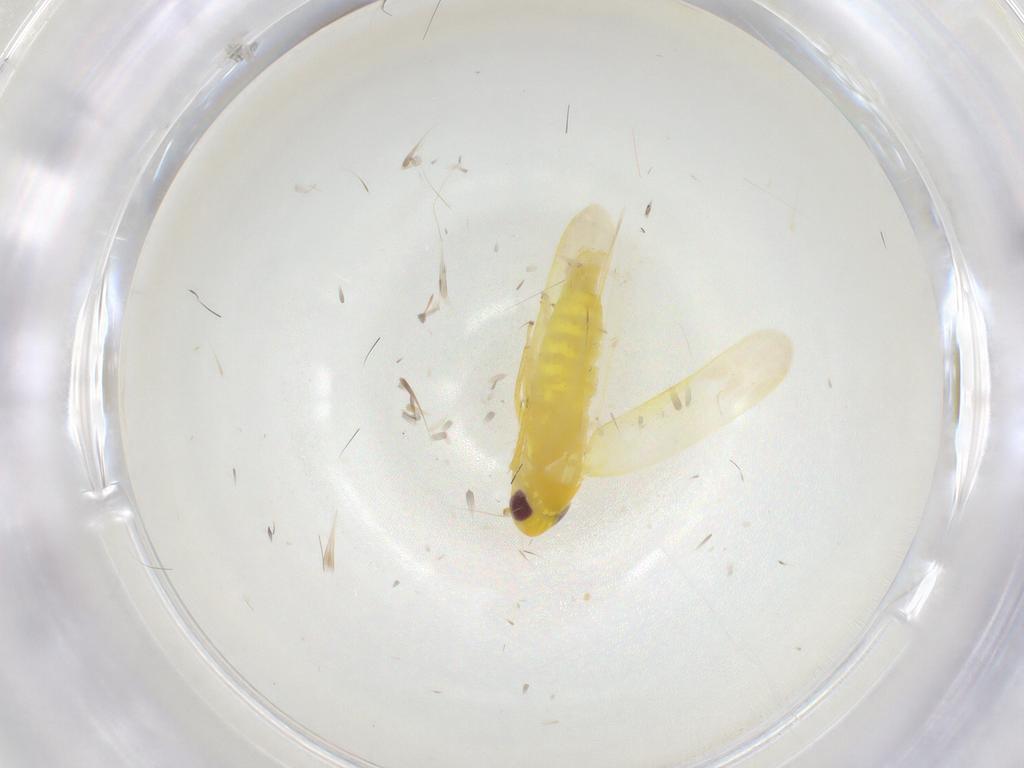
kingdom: Animalia
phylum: Arthropoda
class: Insecta
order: Hemiptera
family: Cicadellidae
